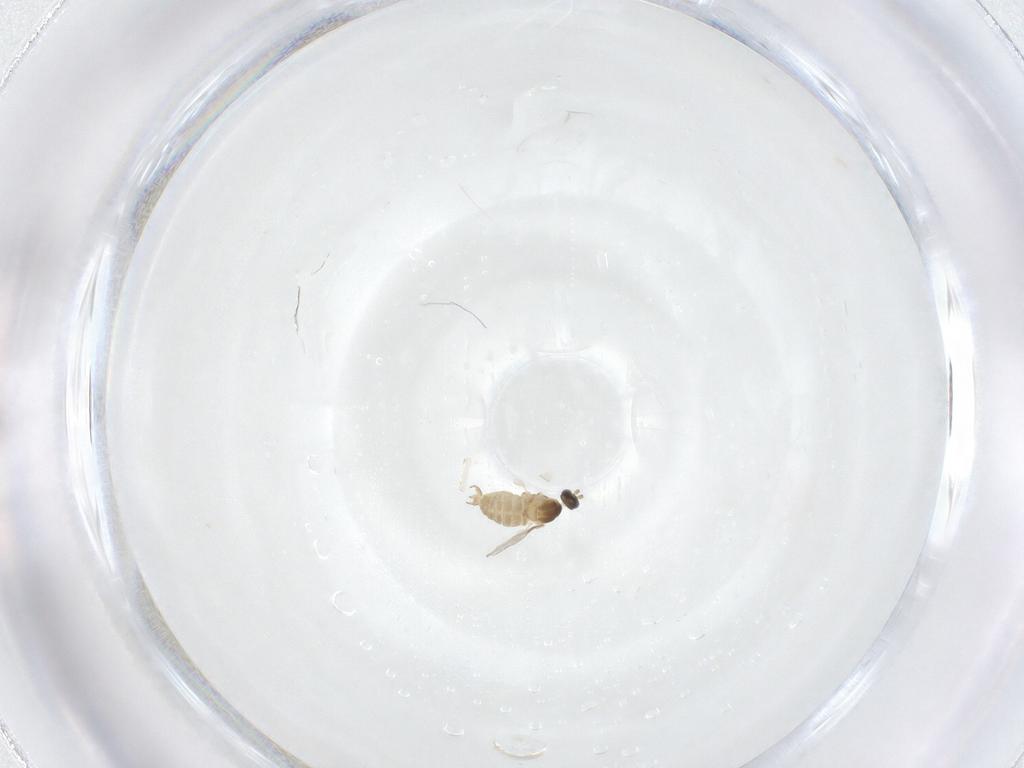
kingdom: Animalia
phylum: Arthropoda
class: Insecta
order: Diptera
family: Cecidomyiidae
